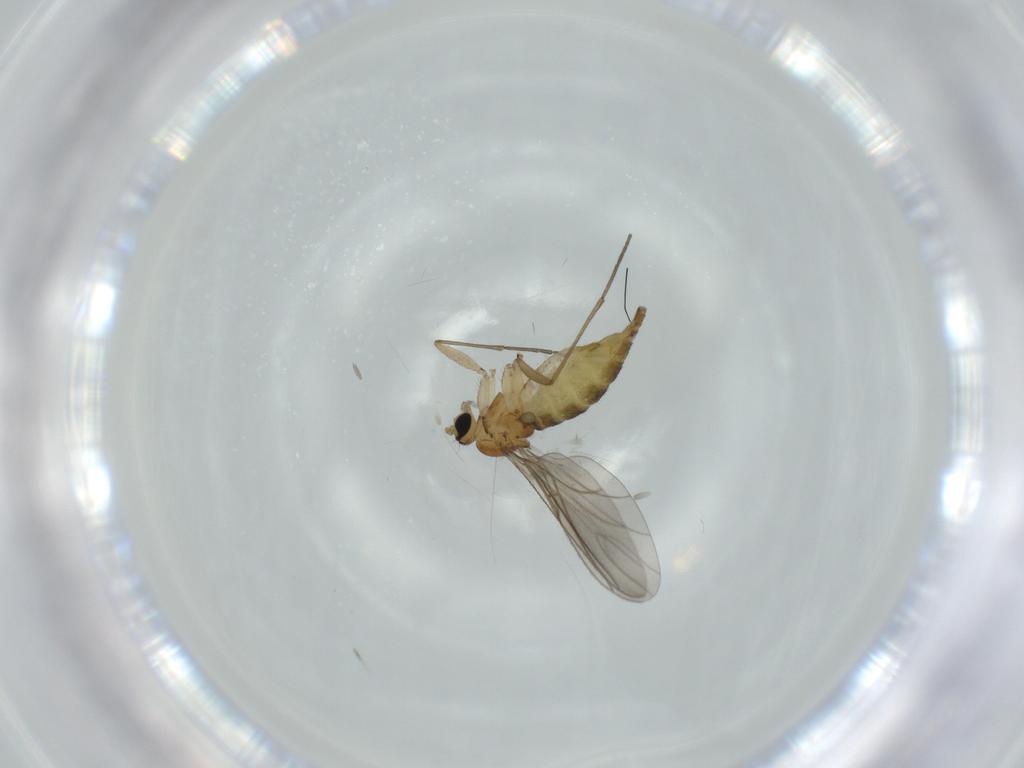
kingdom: Animalia
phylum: Arthropoda
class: Insecta
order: Diptera
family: Sciaridae
